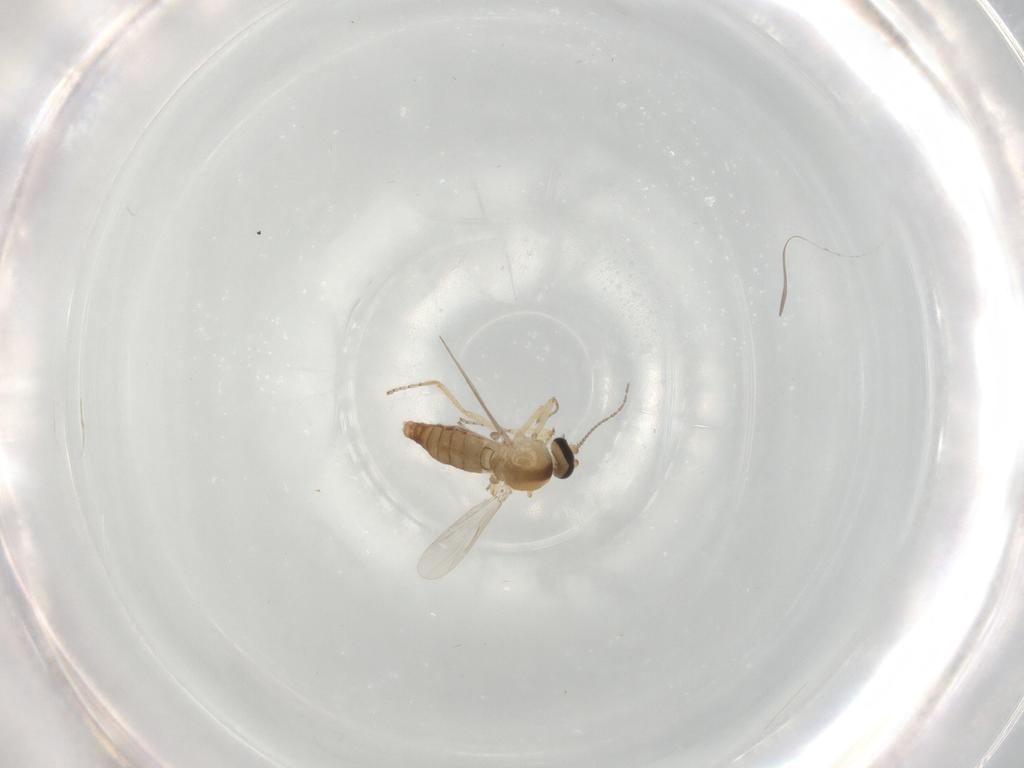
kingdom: Animalia
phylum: Arthropoda
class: Insecta
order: Diptera
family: Ceratopogonidae
